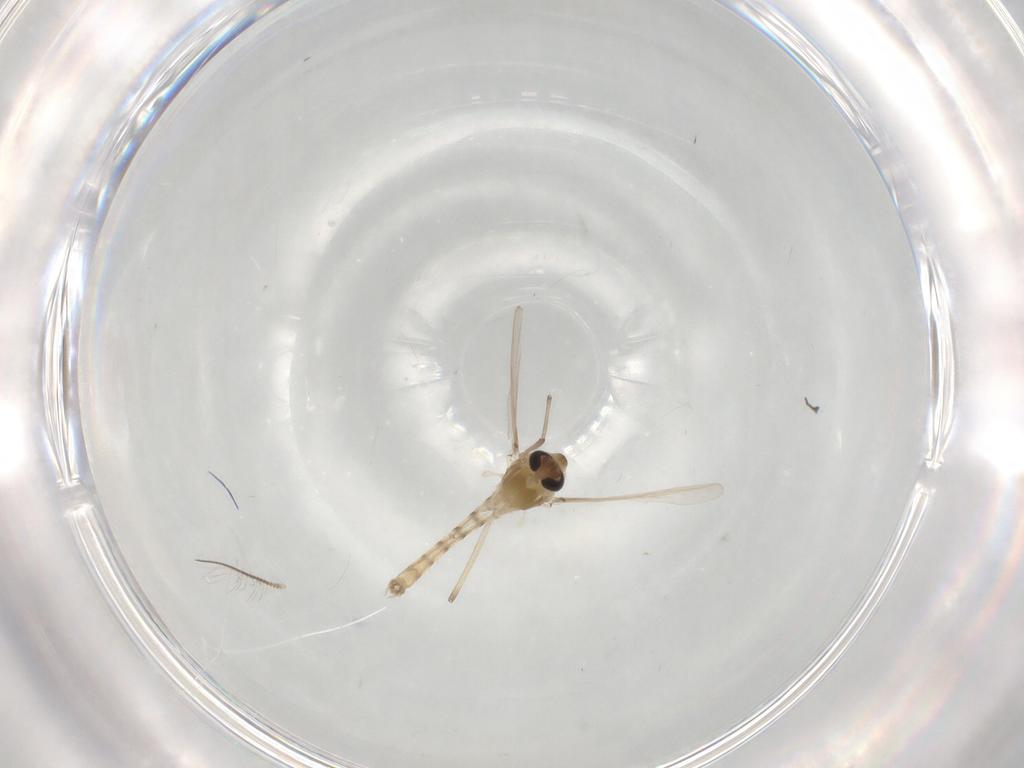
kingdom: Animalia
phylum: Arthropoda
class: Insecta
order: Diptera
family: Chironomidae
